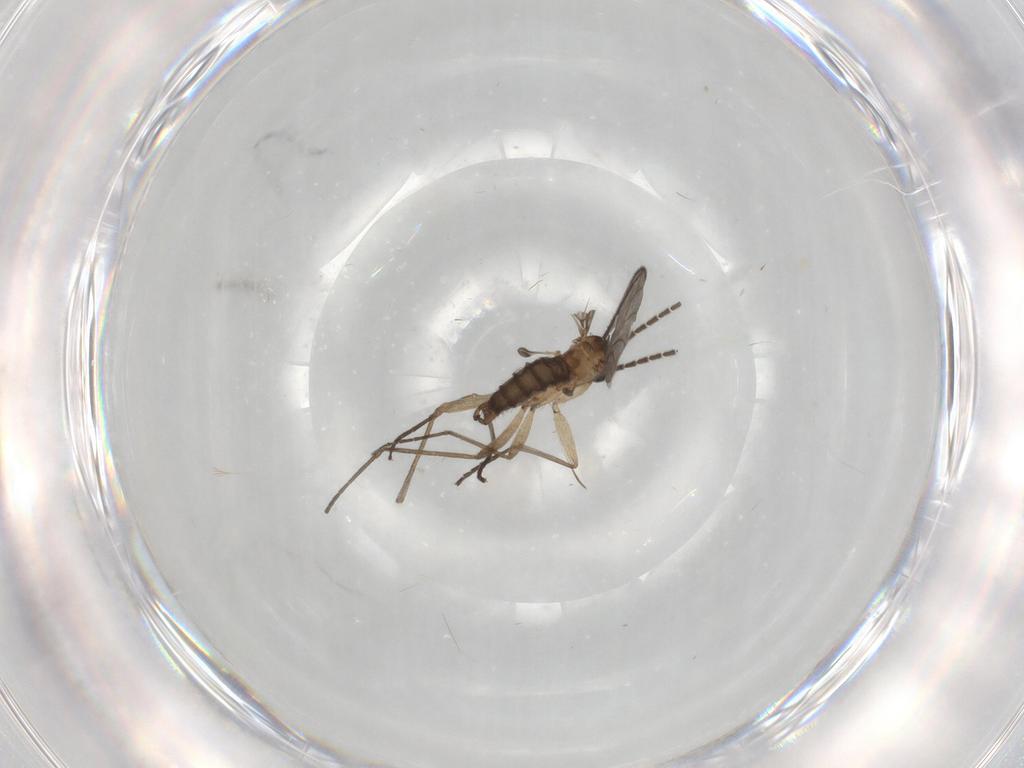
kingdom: Animalia
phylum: Arthropoda
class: Insecta
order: Diptera
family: Sciaridae
